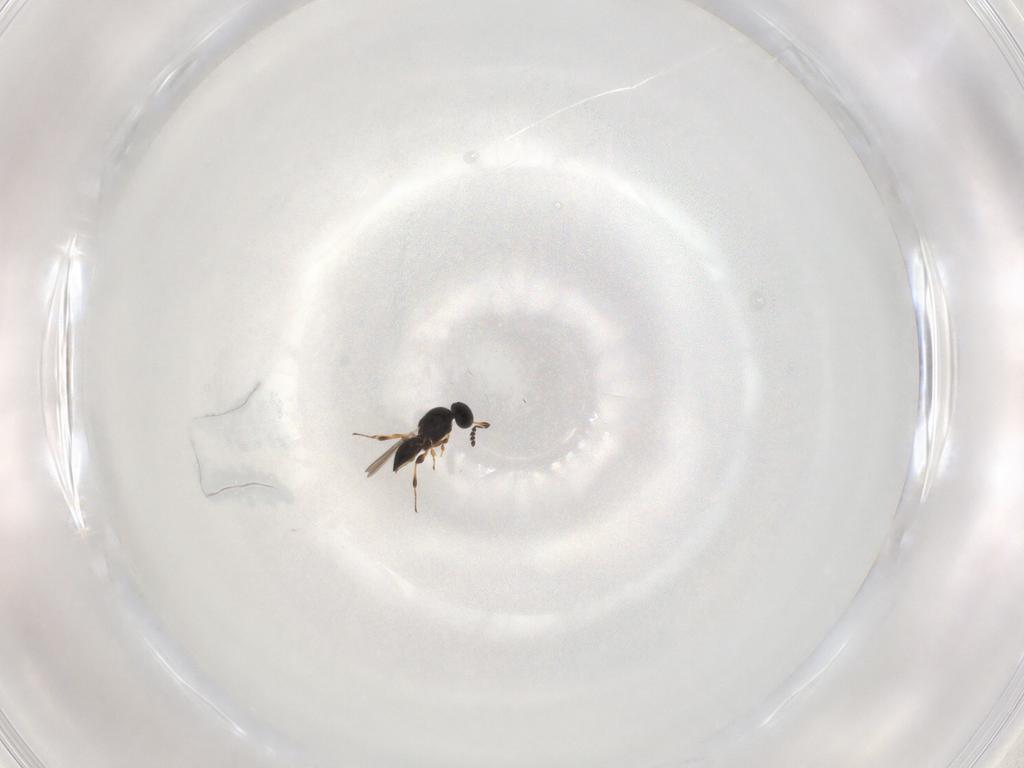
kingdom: Animalia
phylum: Arthropoda
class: Insecta
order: Hymenoptera
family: Platygastridae
